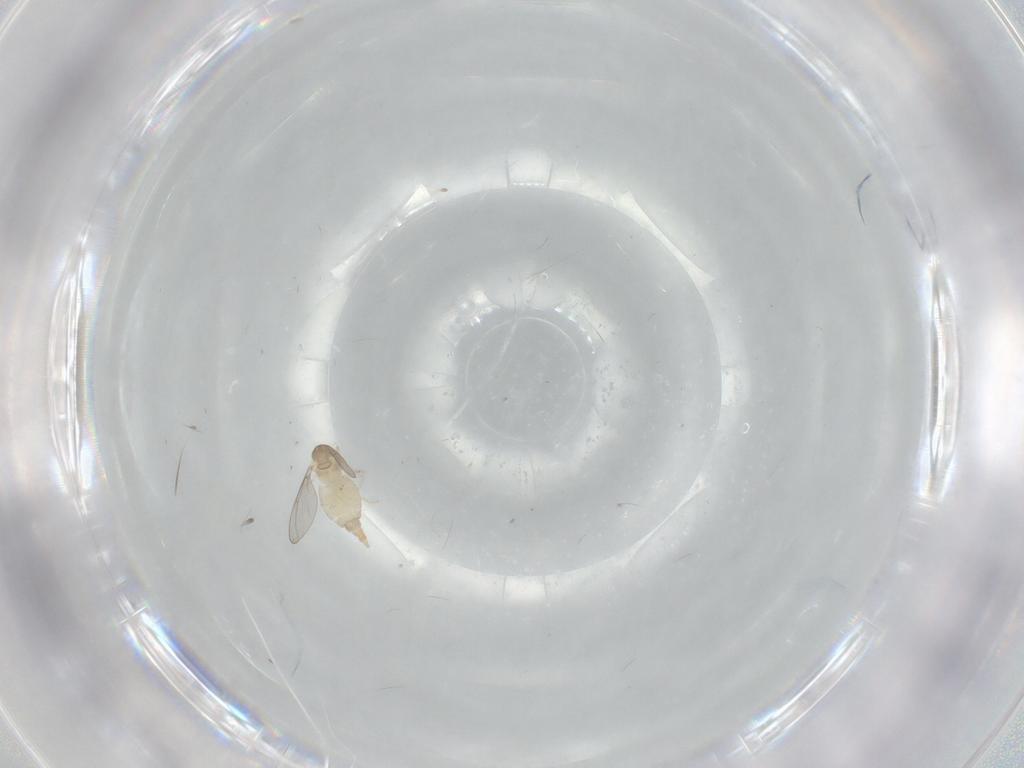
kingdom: Animalia
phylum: Arthropoda
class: Insecta
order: Diptera
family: Cecidomyiidae
